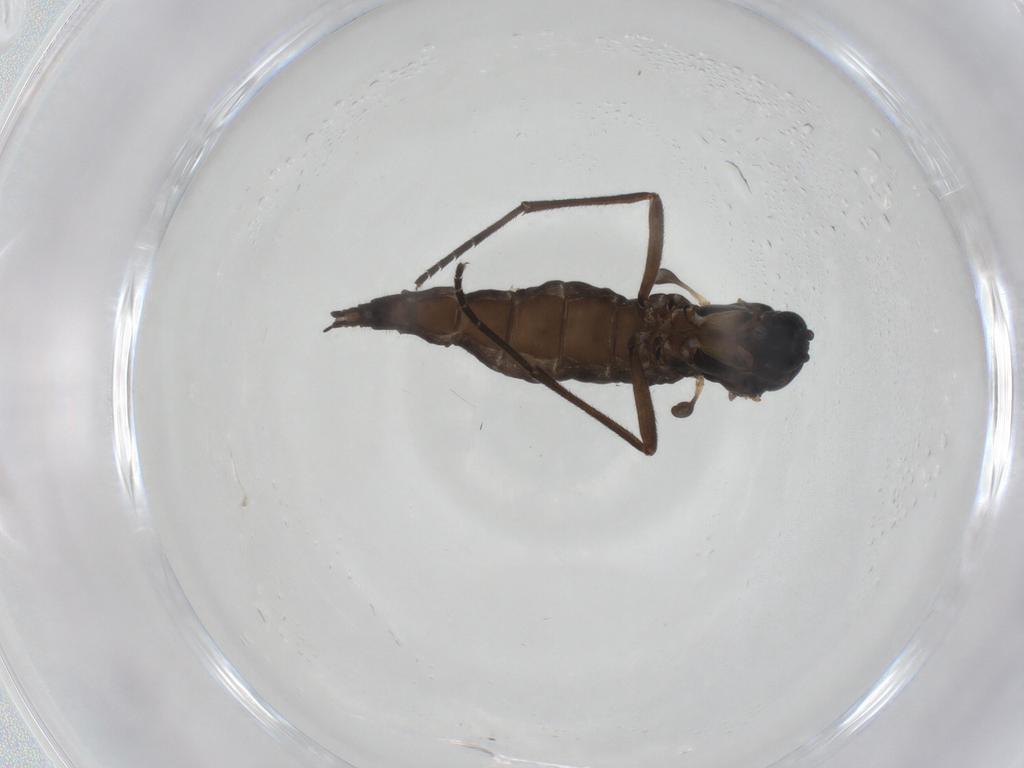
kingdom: Animalia
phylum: Arthropoda
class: Insecta
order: Diptera
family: Sciaridae
